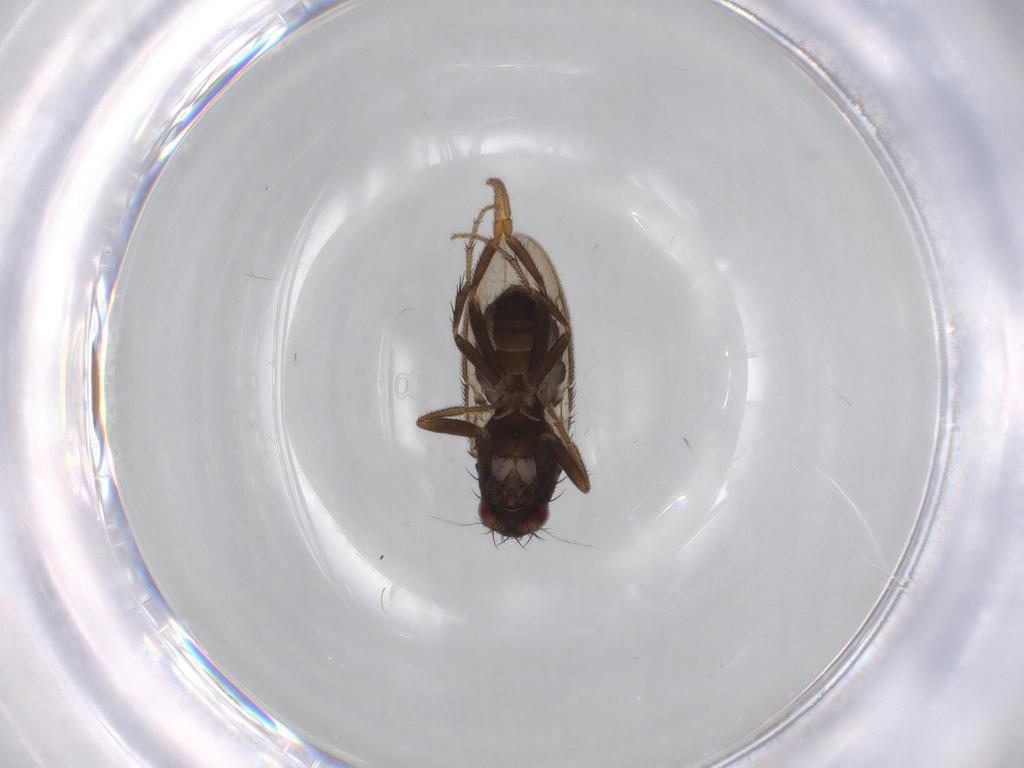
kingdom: Animalia
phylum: Arthropoda
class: Insecta
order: Diptera
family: Sphaeroceridae
